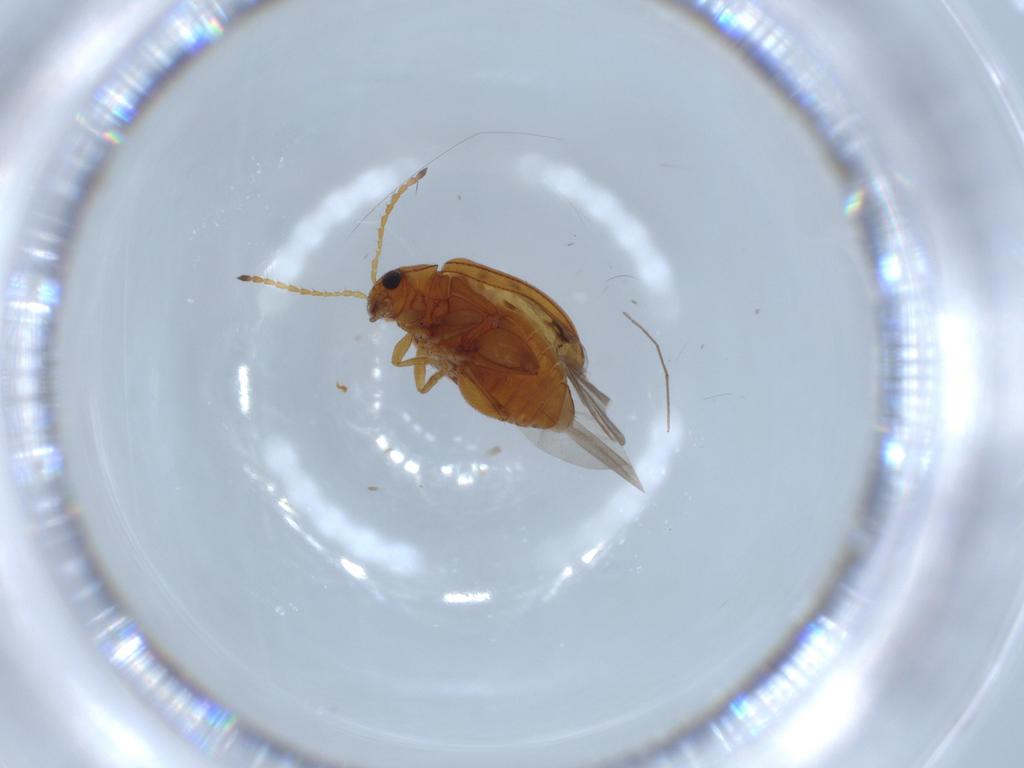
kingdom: Animalia
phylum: Arthropoda
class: Insecta
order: Coleoptera
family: Chrysomelidae
